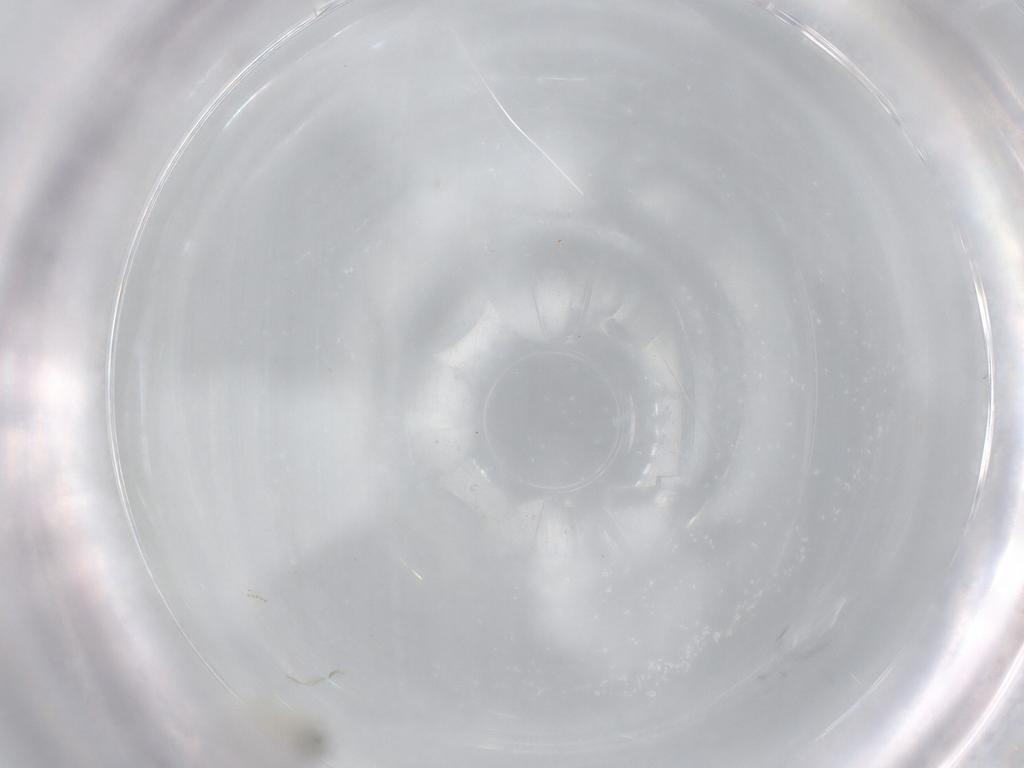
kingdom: Animalia
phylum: Arthropoda
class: Insecta
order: Diptera
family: Cecidomyiidae
